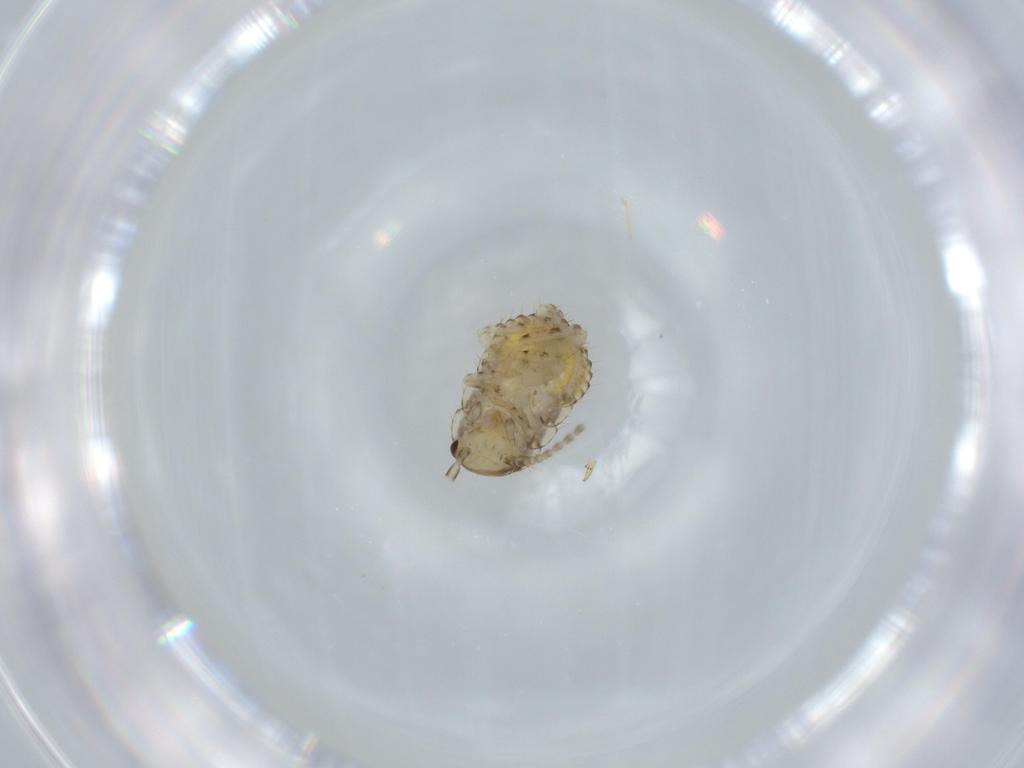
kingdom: Animalia
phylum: Arthropoda
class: Insecta
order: Blattodea
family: Ectobiidae
